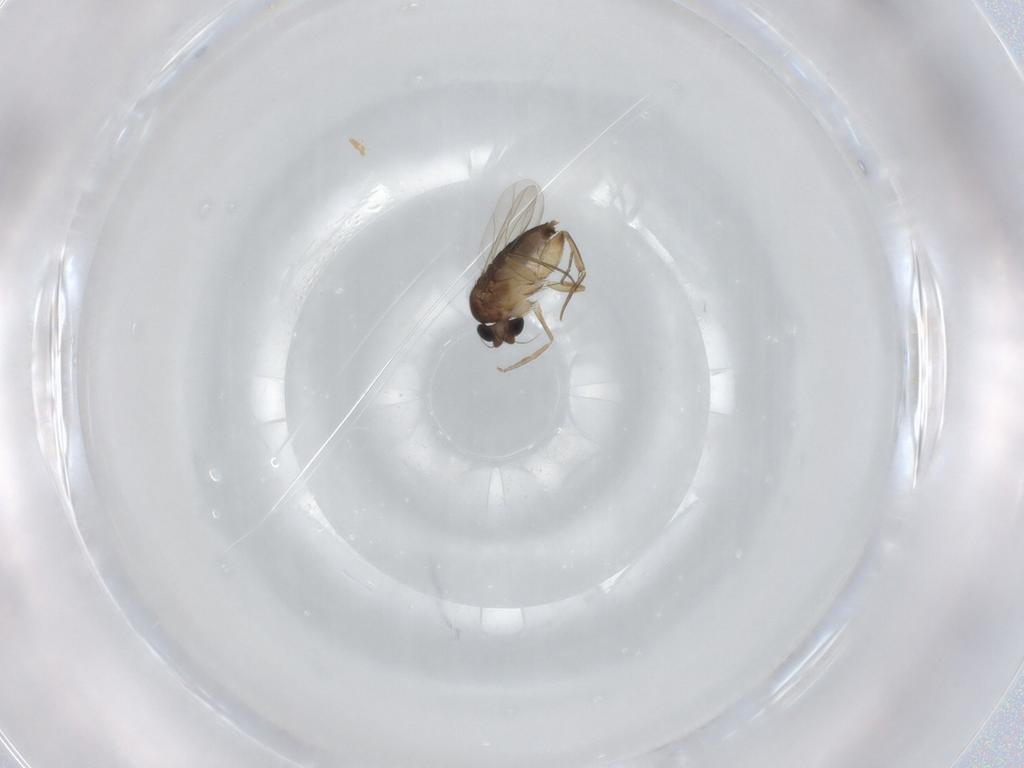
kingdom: Animalia
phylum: Arthropoda
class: Insecta
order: Diptera
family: Phoridae
